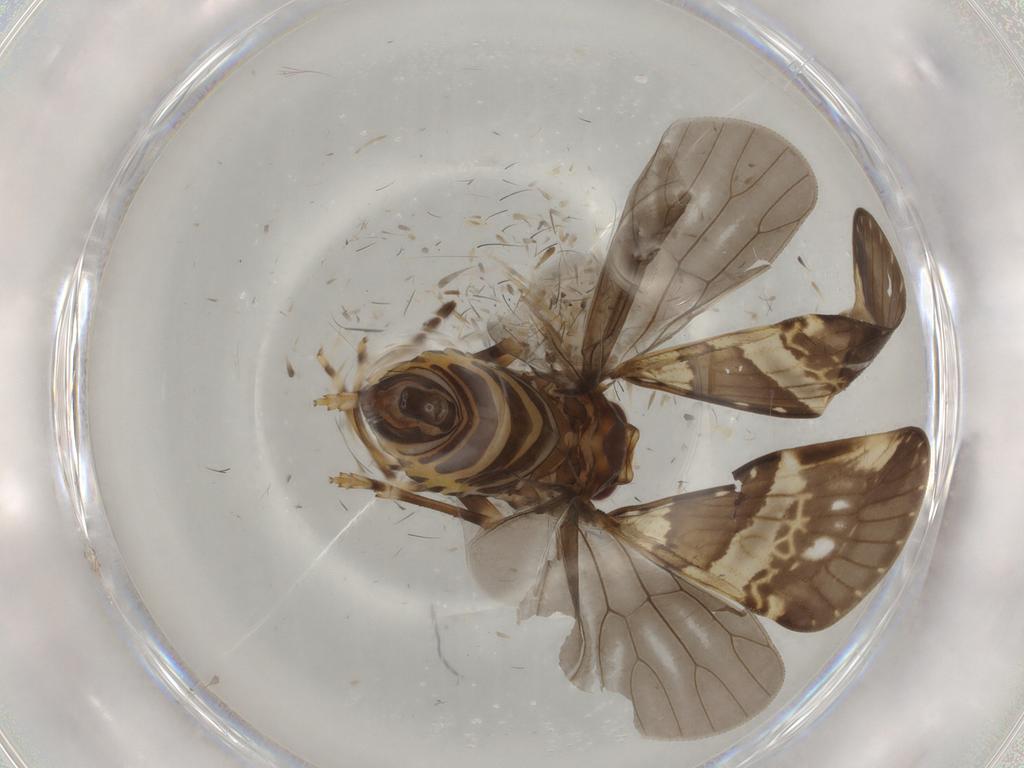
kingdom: Animalia
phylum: Arthropoda
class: Insecta
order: Hemiptera
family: Cixiidae
